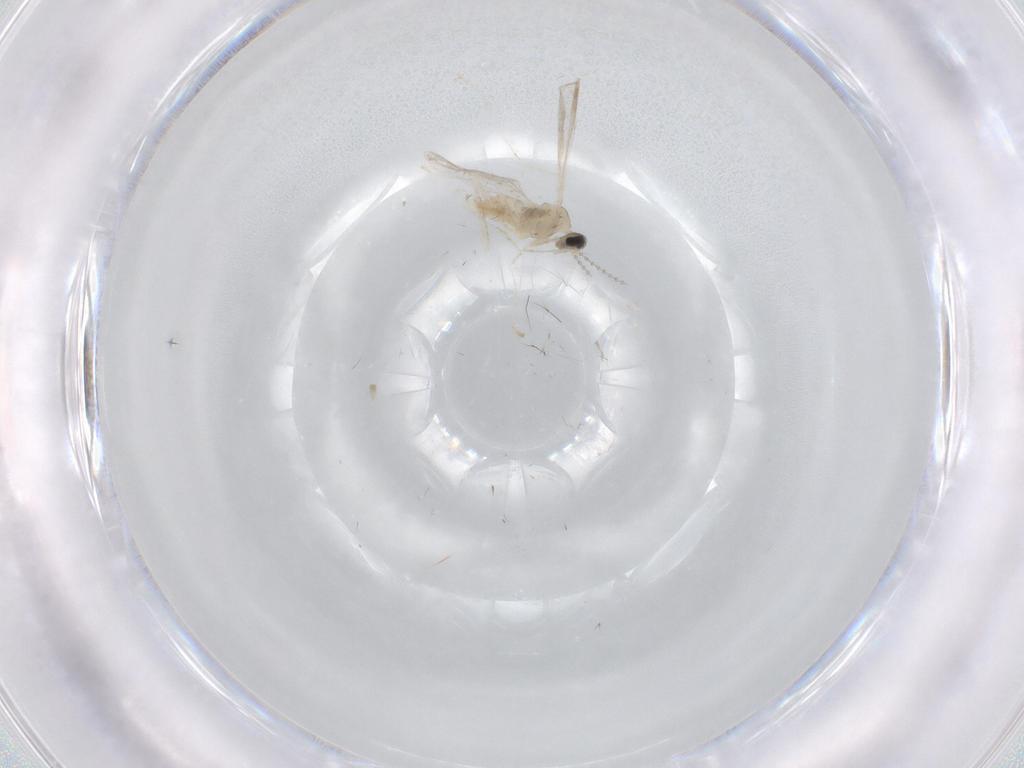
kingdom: Animalia
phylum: Arthropoda
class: Insecta
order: Diptera
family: Cecidomyiidae
